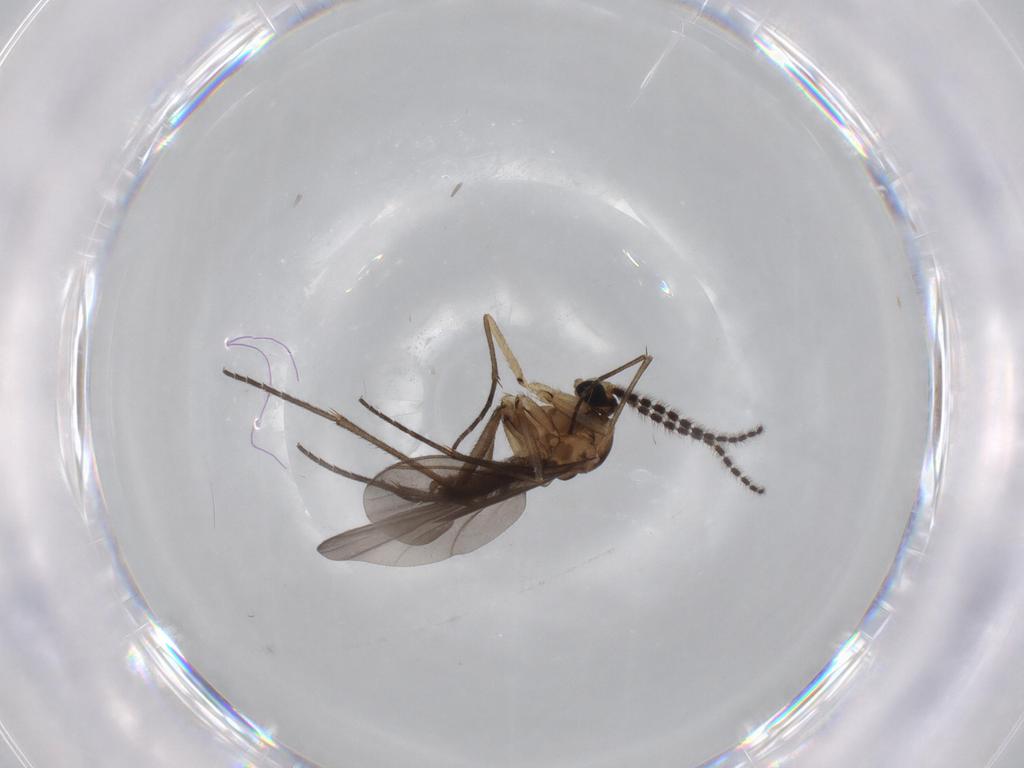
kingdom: Animalia
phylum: Arthropoda
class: Insecta
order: Diptera
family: Sciaridae
